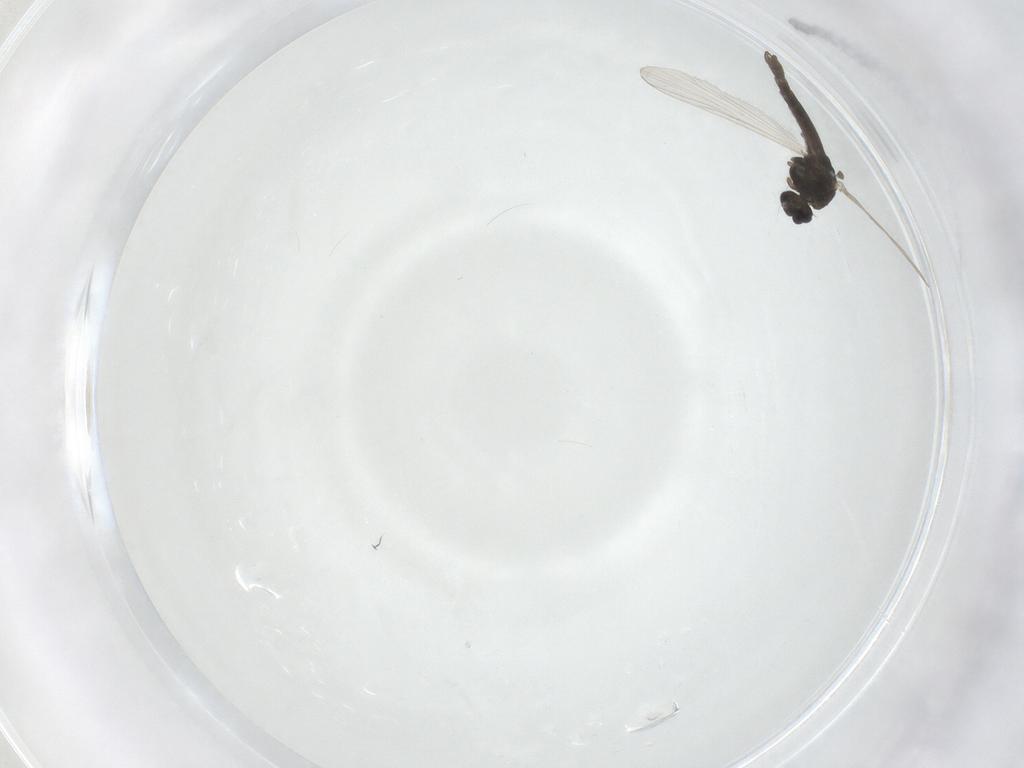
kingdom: Animalia
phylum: Arthropoda
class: Insecta
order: Diptera
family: Chironomidae
